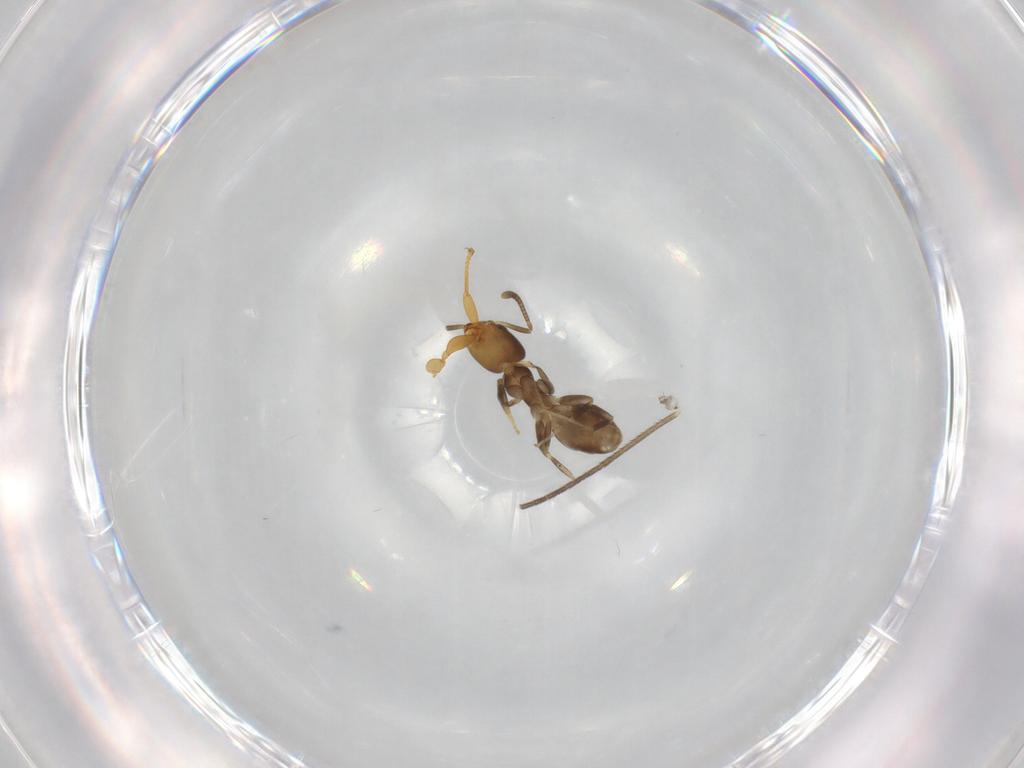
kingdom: Animalia
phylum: Arthropoda
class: Insecta
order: Hymenoptera
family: Formicidae
